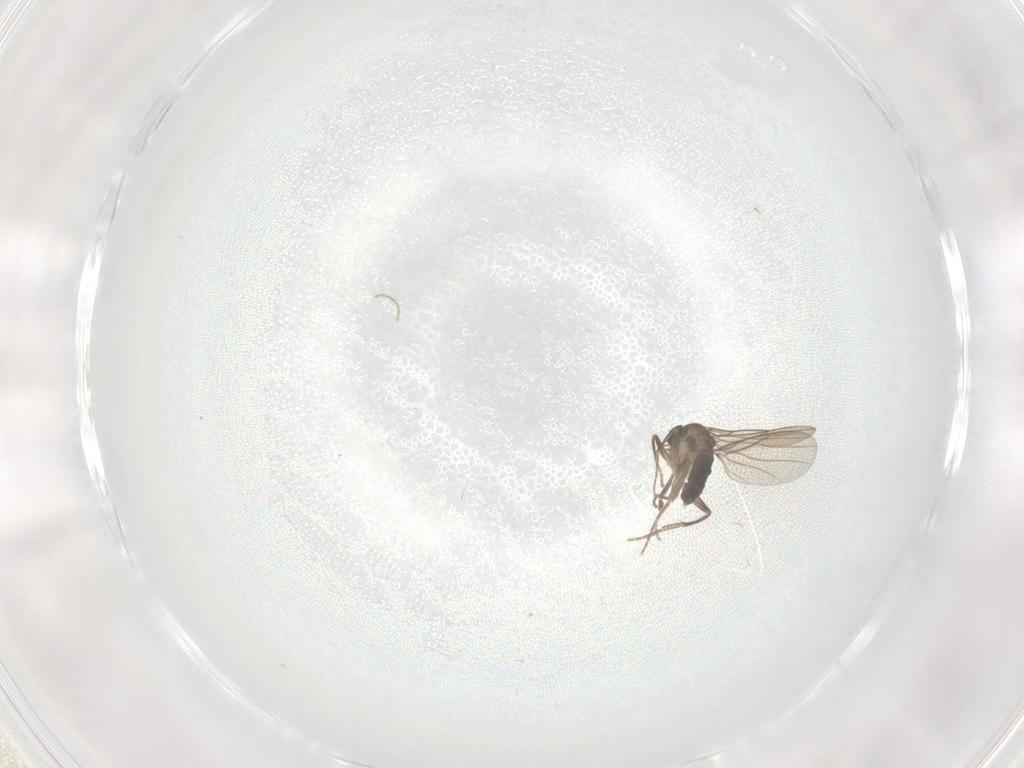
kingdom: Animalia
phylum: Arthropoda
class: Insecta
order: Diptera
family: Phoridae
